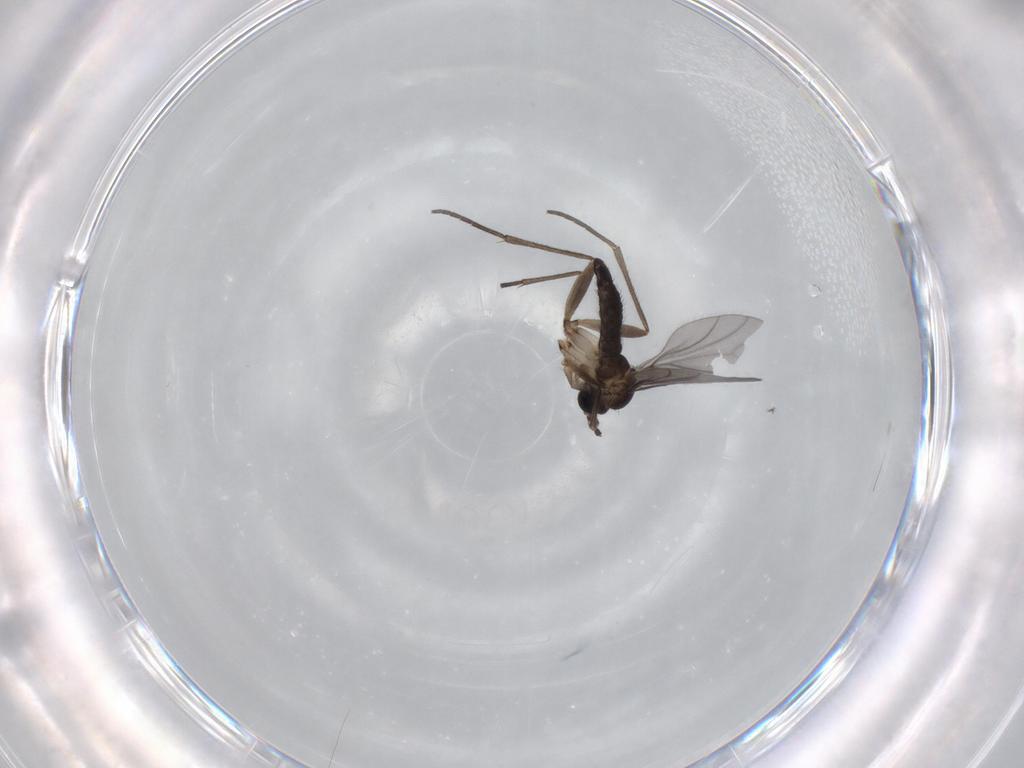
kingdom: Animalia
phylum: Arthropoda
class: Insecta
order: Diptera
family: Sciaridae
